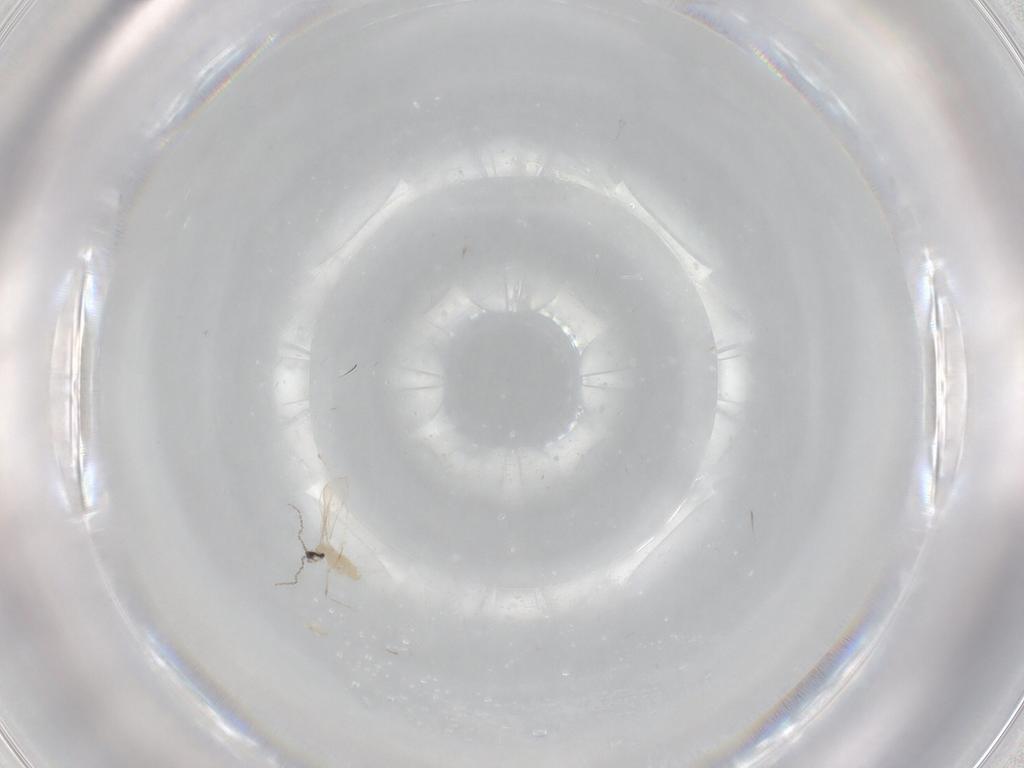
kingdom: Animalia
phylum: Arthropoda
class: Insecta
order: Diptera
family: Cecidomyiidae
